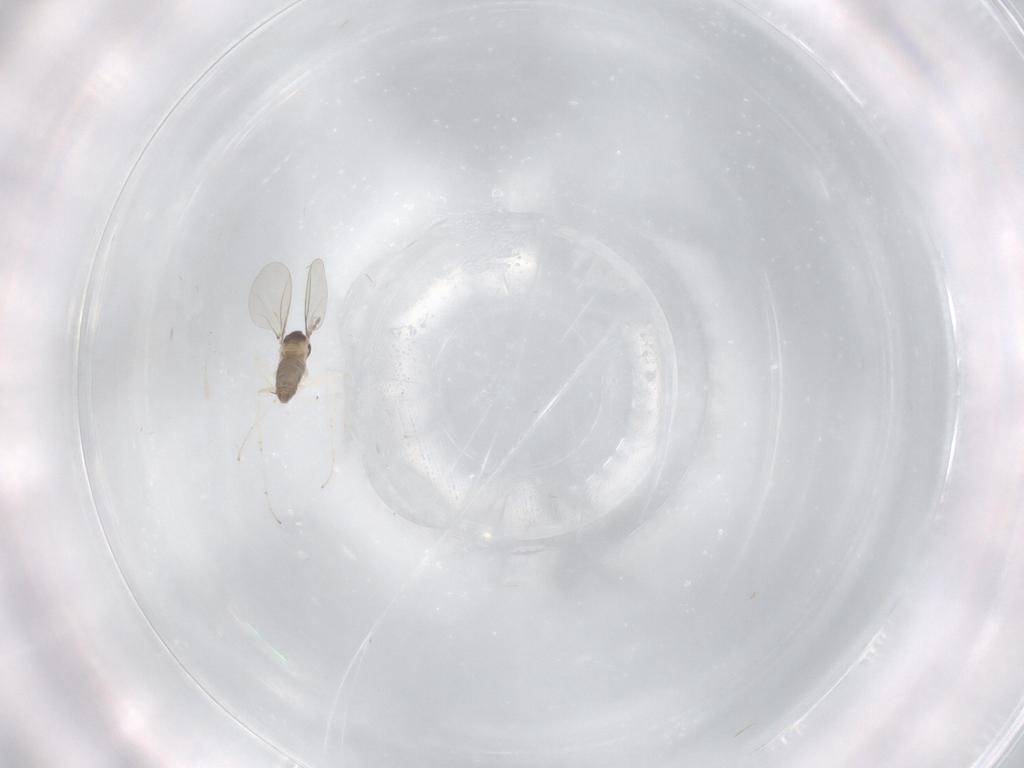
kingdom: Animalia
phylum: Arthropoda
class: Insecta
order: Diptera
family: Cecidomyiidae
